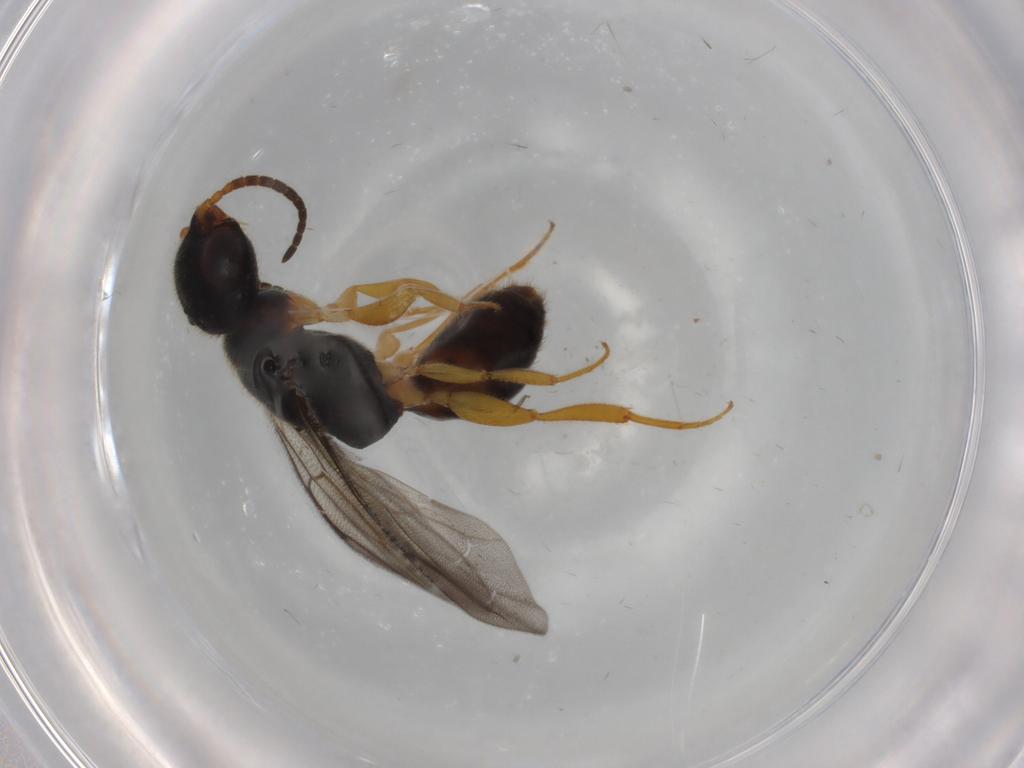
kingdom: Animalia
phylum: Arthropoda
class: Insecta
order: Hymenoptera
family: Bethylidae
